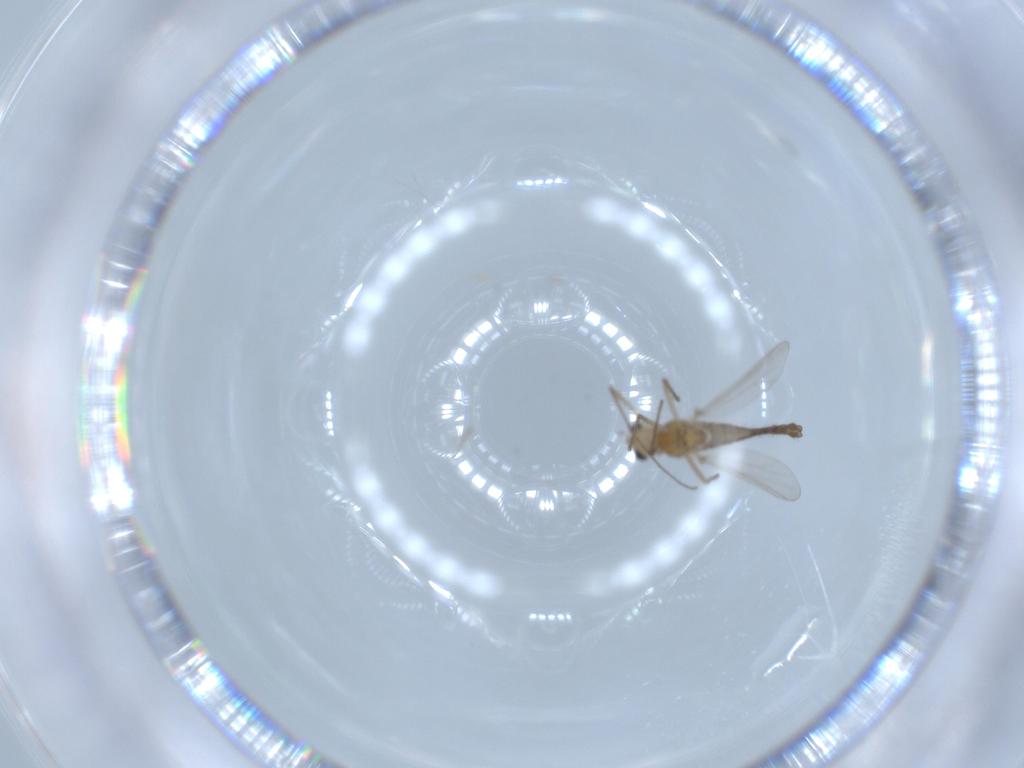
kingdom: Animalia
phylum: Arthropoda
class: Insecta
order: Diptera
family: Chironomidae
